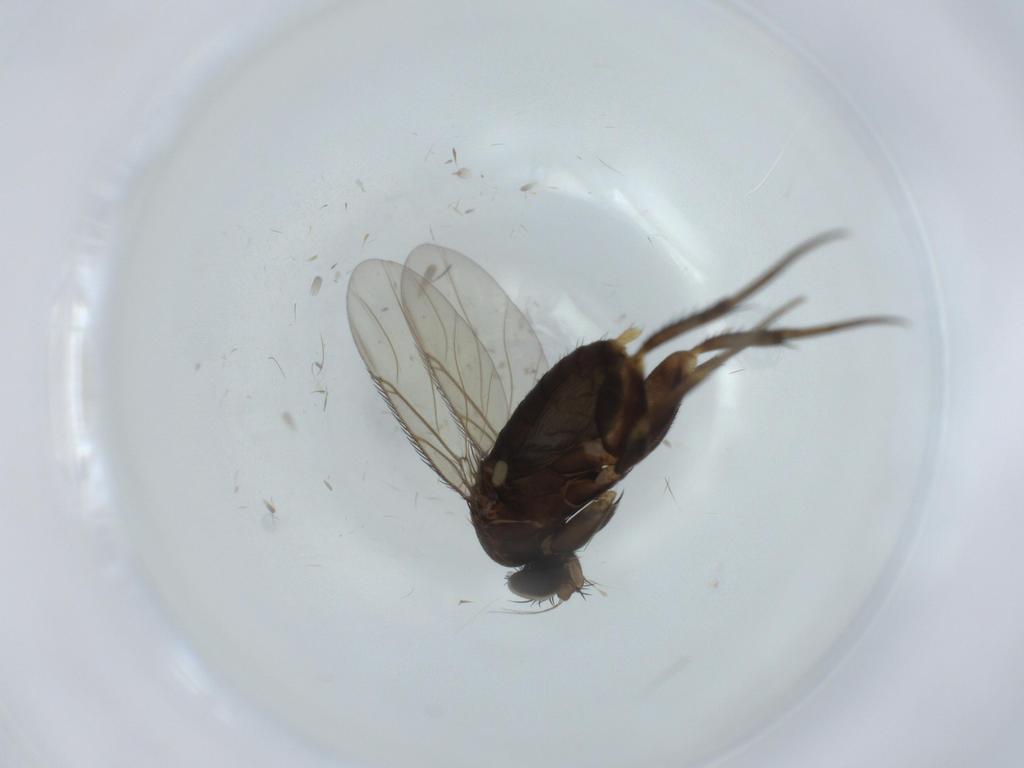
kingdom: Animalia
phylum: Arthropoda
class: Insecta
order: Diptera
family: Phoridae
